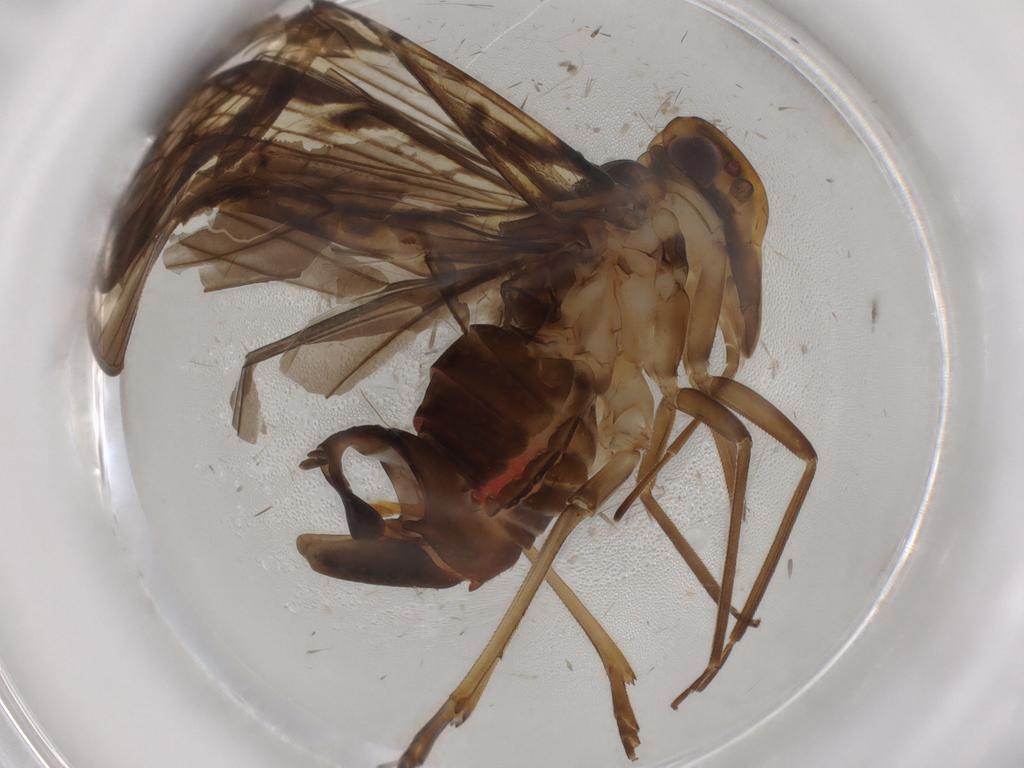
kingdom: Animalia
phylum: Arthropoda
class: Insecta
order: Hemiptera
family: Cixiidae
